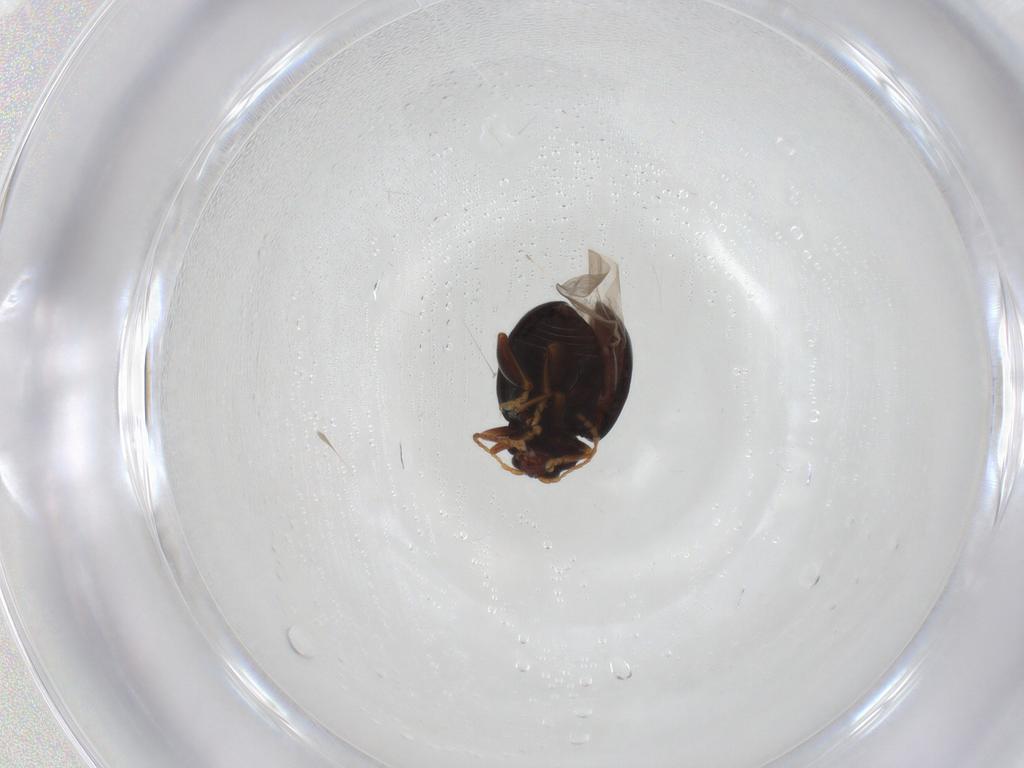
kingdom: Animalia
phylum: Arthropoda
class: Insecta
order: Coleoptera
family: Chrysomelidae
